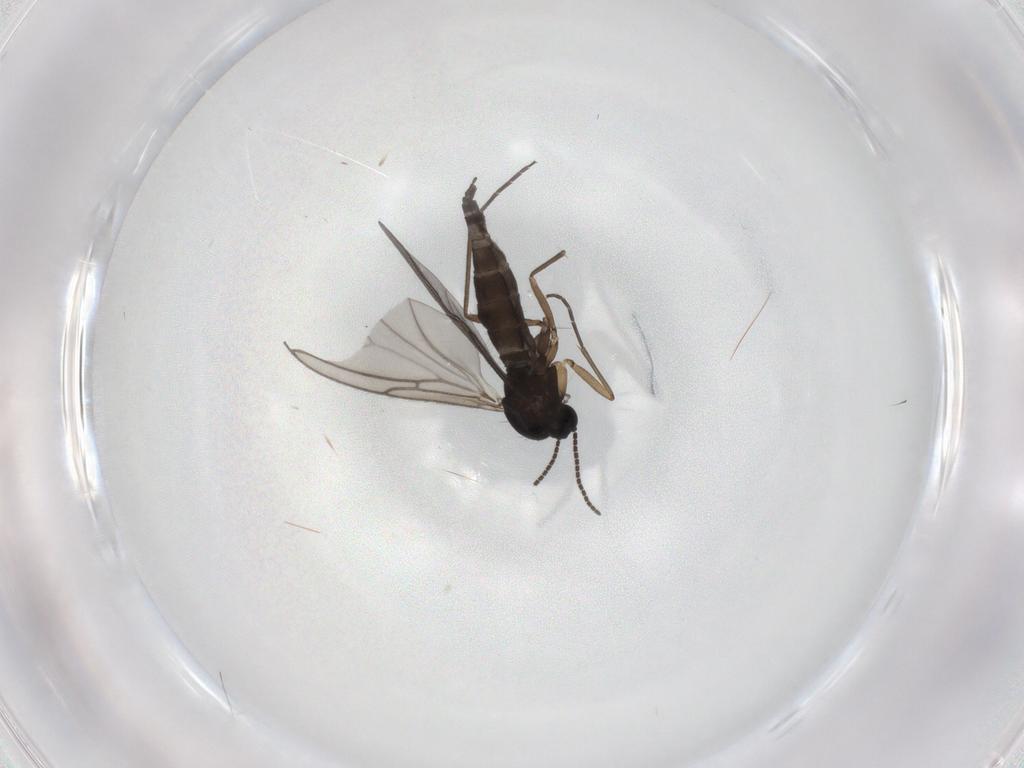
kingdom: Animalia
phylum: Arthropoda
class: Insecta
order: Diptera
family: Sciaridae
